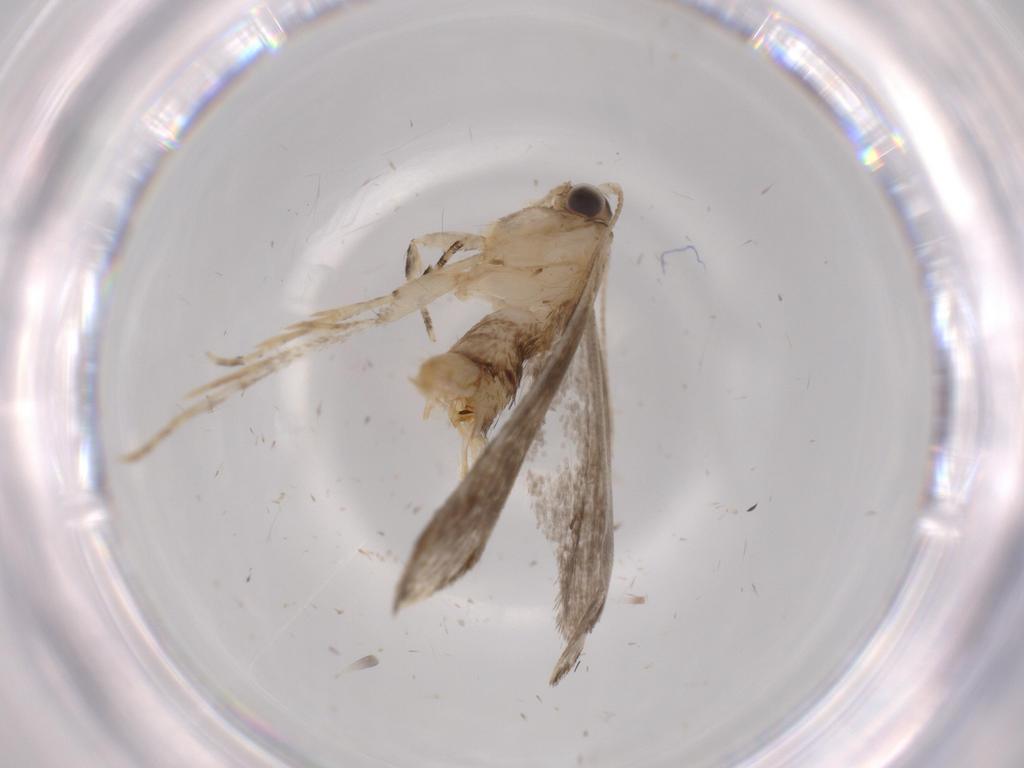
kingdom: Animalia
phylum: Arthropoda
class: Insecta
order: Lepidoptera
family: Tineidae
